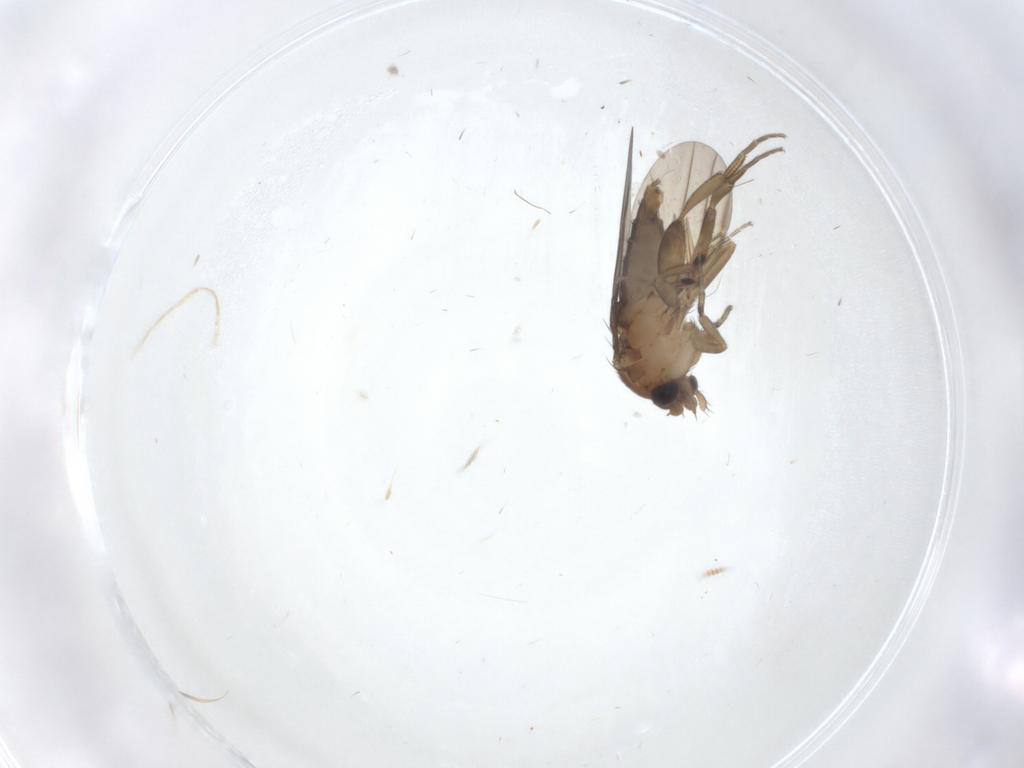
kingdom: Animalia
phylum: Arthropoda
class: Insecta
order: Diptera
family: Phoridae
